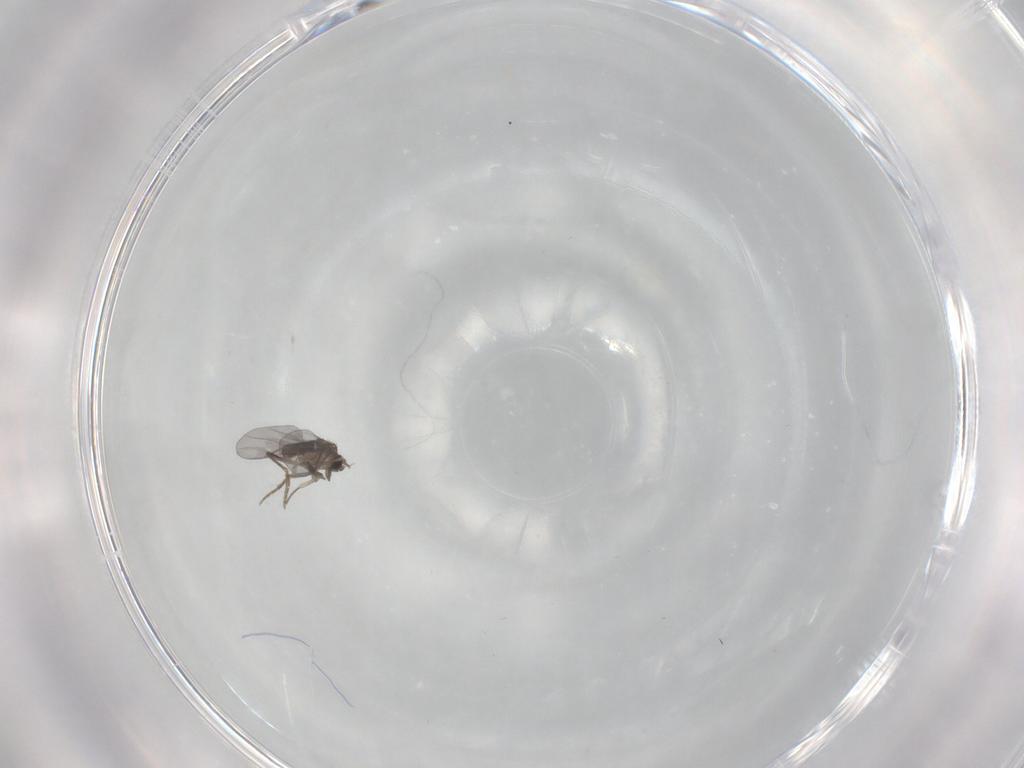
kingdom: Animalia
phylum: Arthropoda
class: Insecta
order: Diptera
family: Limoniidae
